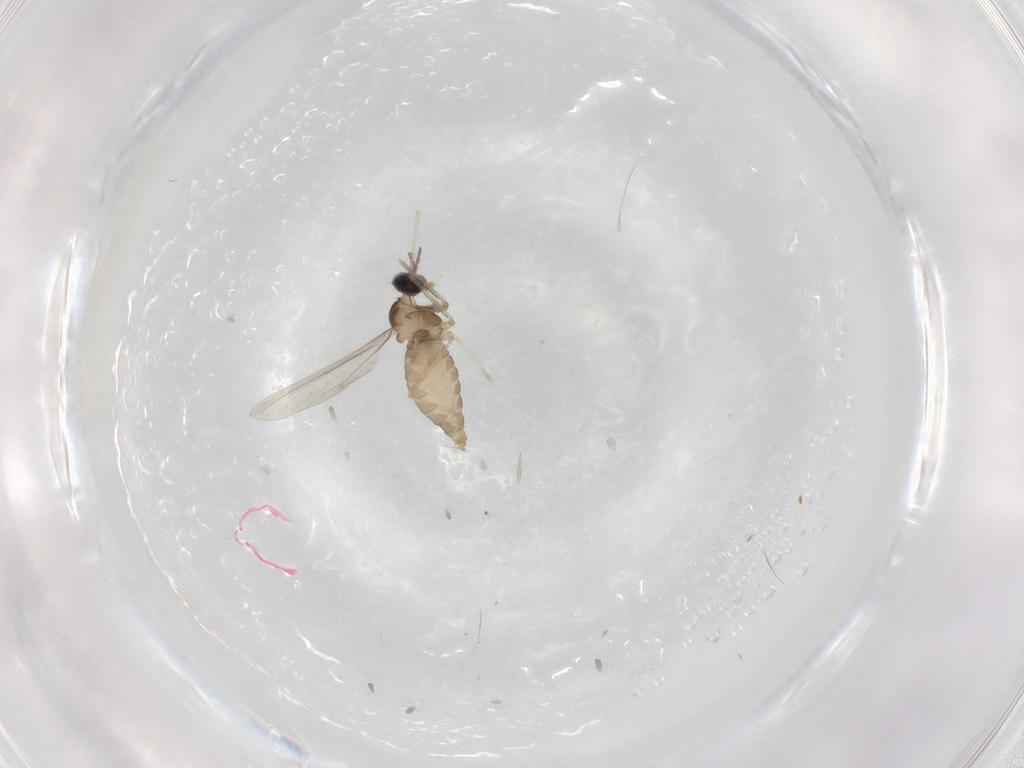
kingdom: Animalia
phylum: Arthropoda
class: Insecta
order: Diptera
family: Cecidomyiidae
